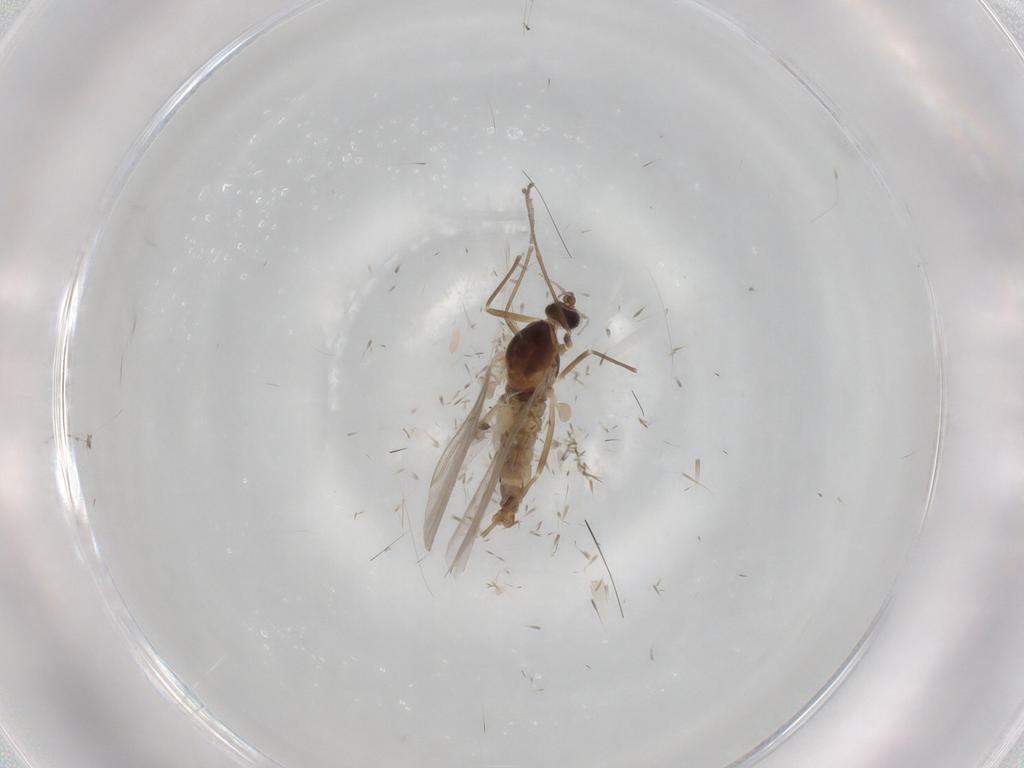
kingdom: Animalia
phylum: Arthropoda
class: Insecta
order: Diptera
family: Cecidomyiidae
